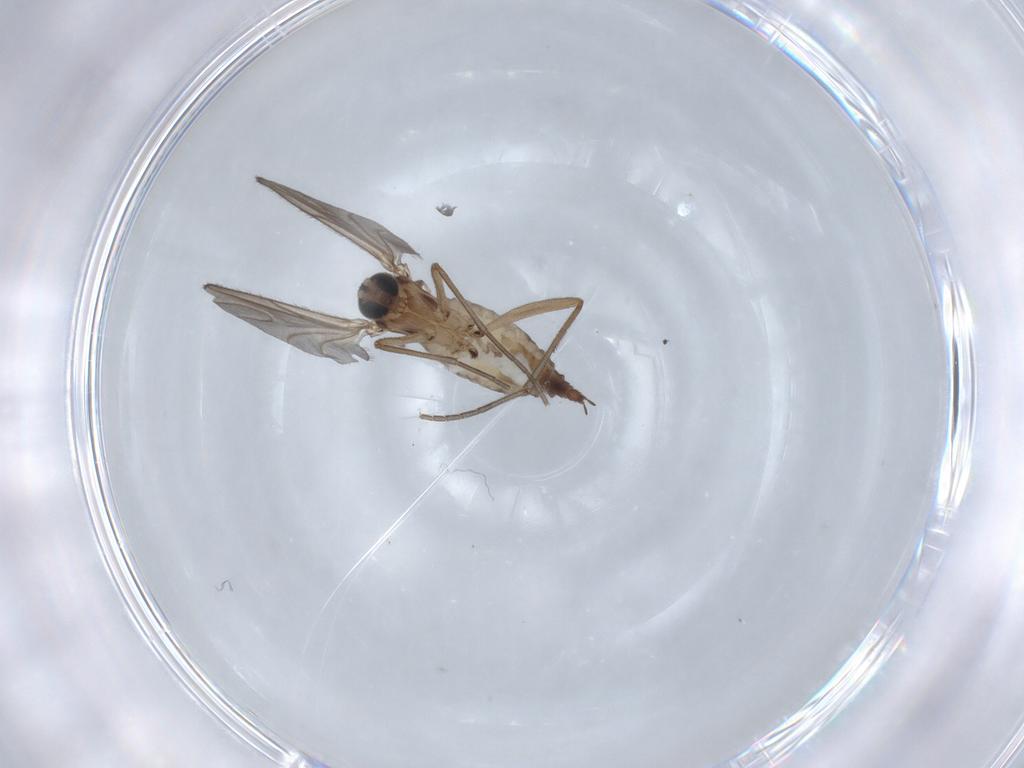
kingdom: Animalia
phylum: Arthropoda
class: Insecta
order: Diptera
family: Sciaridae
